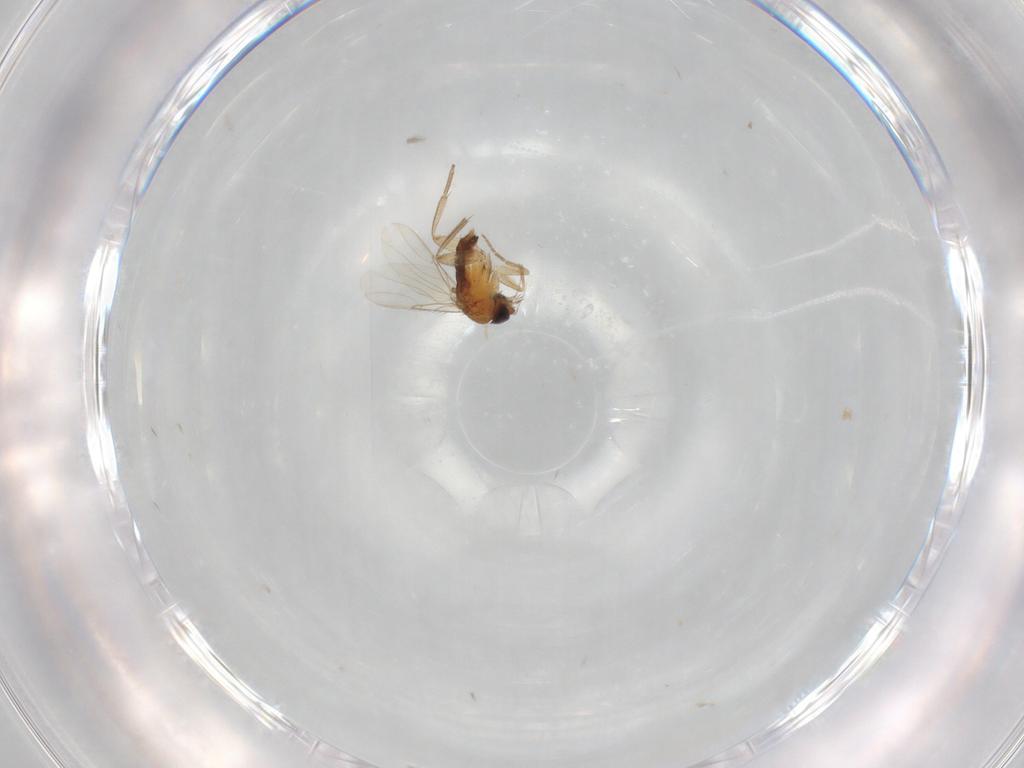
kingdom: Animalia
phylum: Arthropoda
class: Insecta
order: Diptera
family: Phoridae
